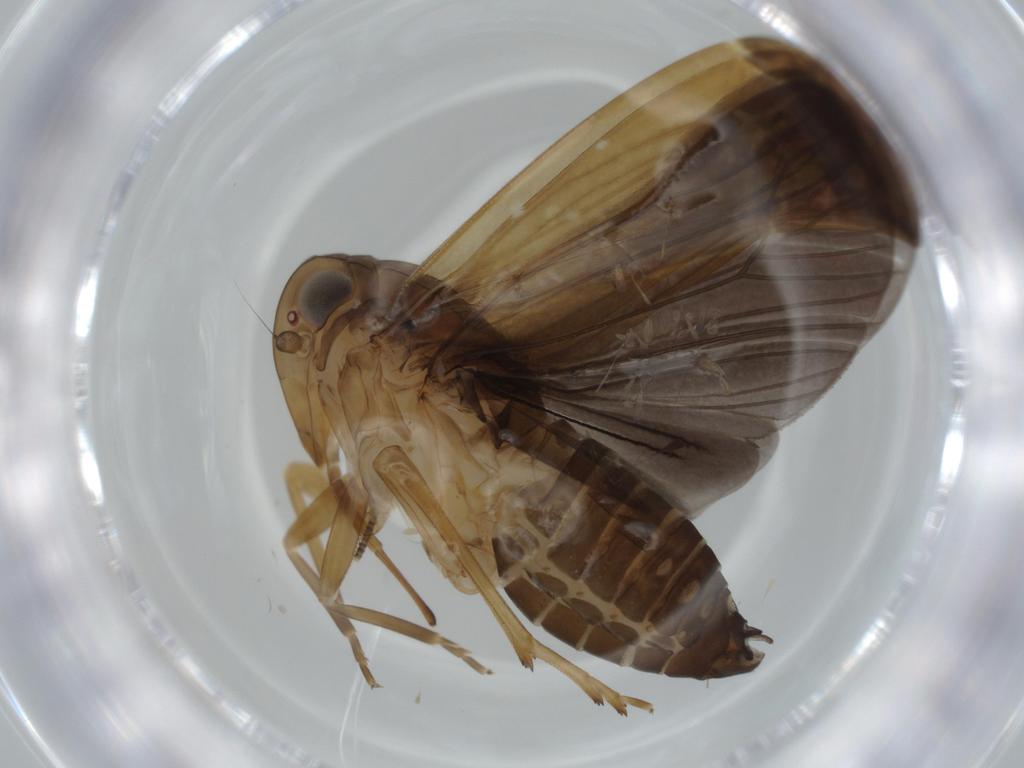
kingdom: Animalia
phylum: Arthropoda
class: Insecta
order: Hemiptera
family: Achilidae
